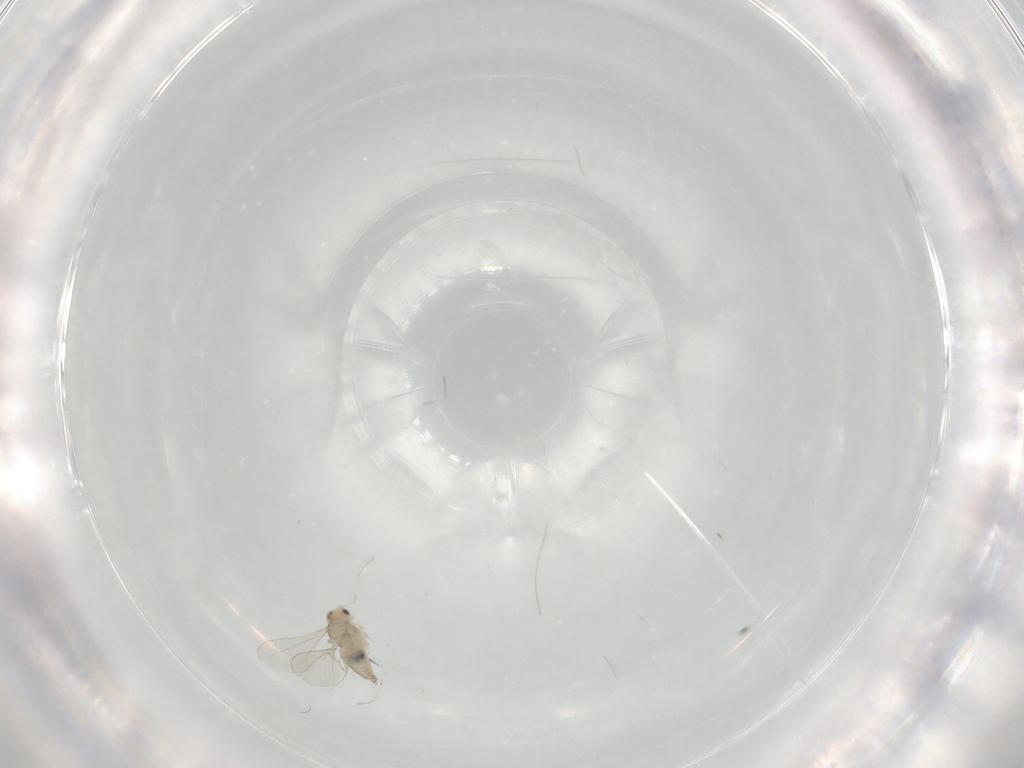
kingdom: Animalia
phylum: Arthropoda
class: Insecta
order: Diptera
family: Cecidomyiidae
